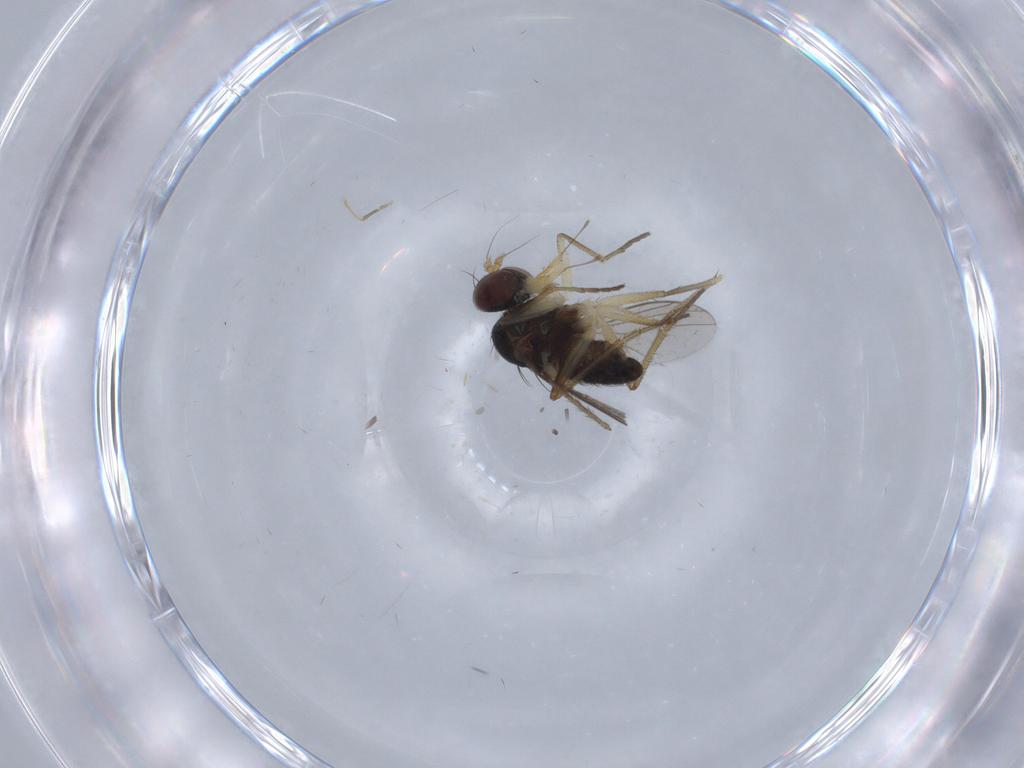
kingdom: Animalia
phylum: Arthropoda
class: Insecta
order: Diptera
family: Dolichopodidae
